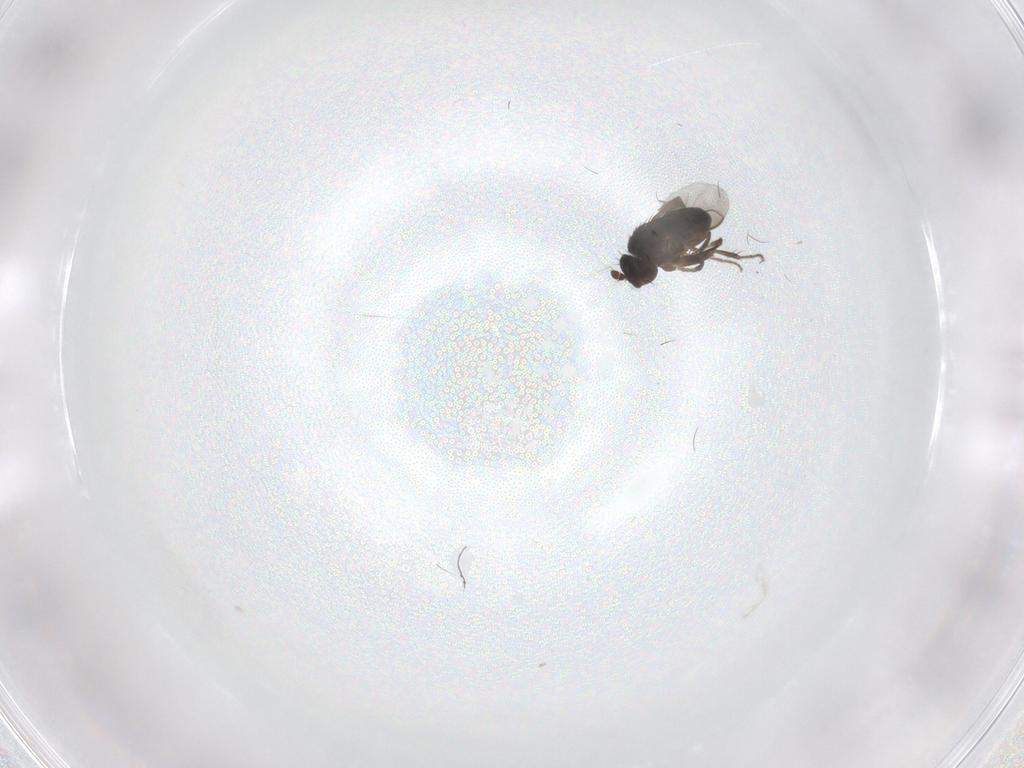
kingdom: Animalia
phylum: Arthropoda
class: Insecta
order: Diptera
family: Sphaeroceridae
